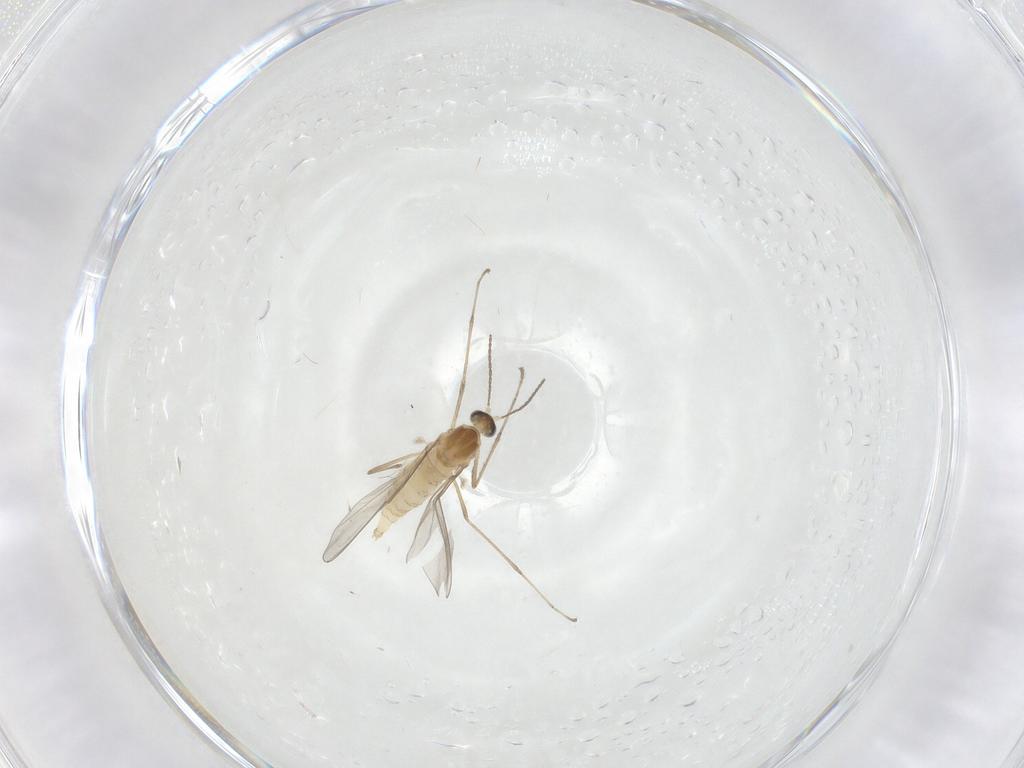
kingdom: Animalia
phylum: Arthropoda
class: Insecta
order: Diptera
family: Cecidomyiidae
